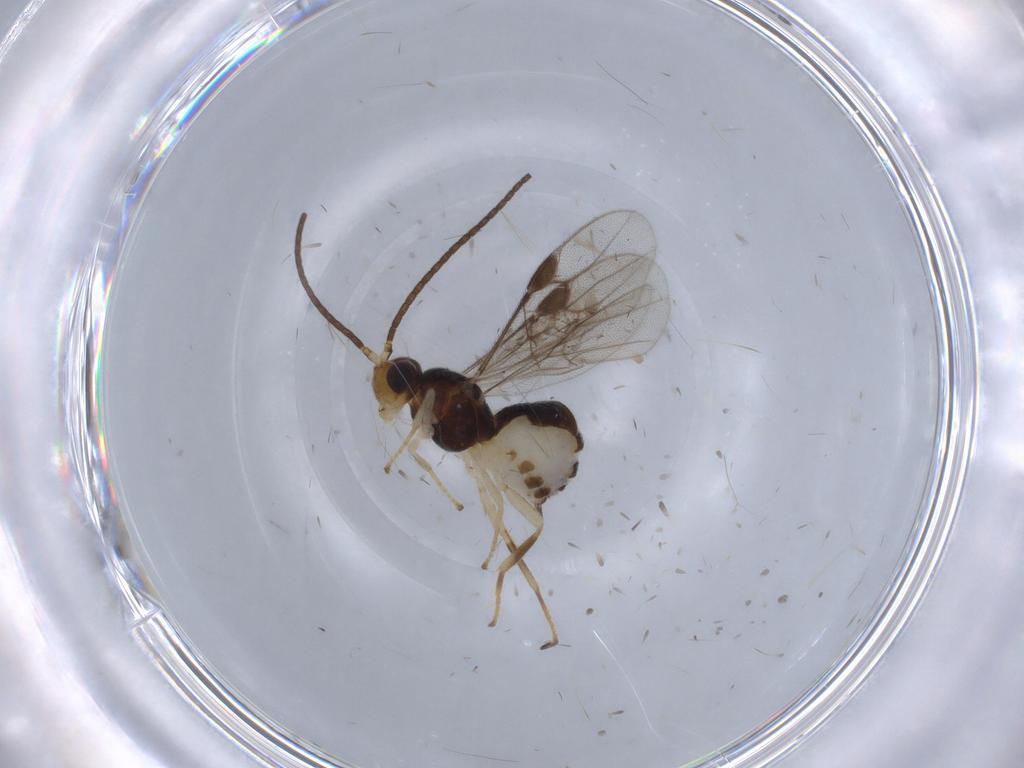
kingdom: Animalia
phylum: Arthropoda
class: Insecta
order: Hymenoptera
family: Braconidae
